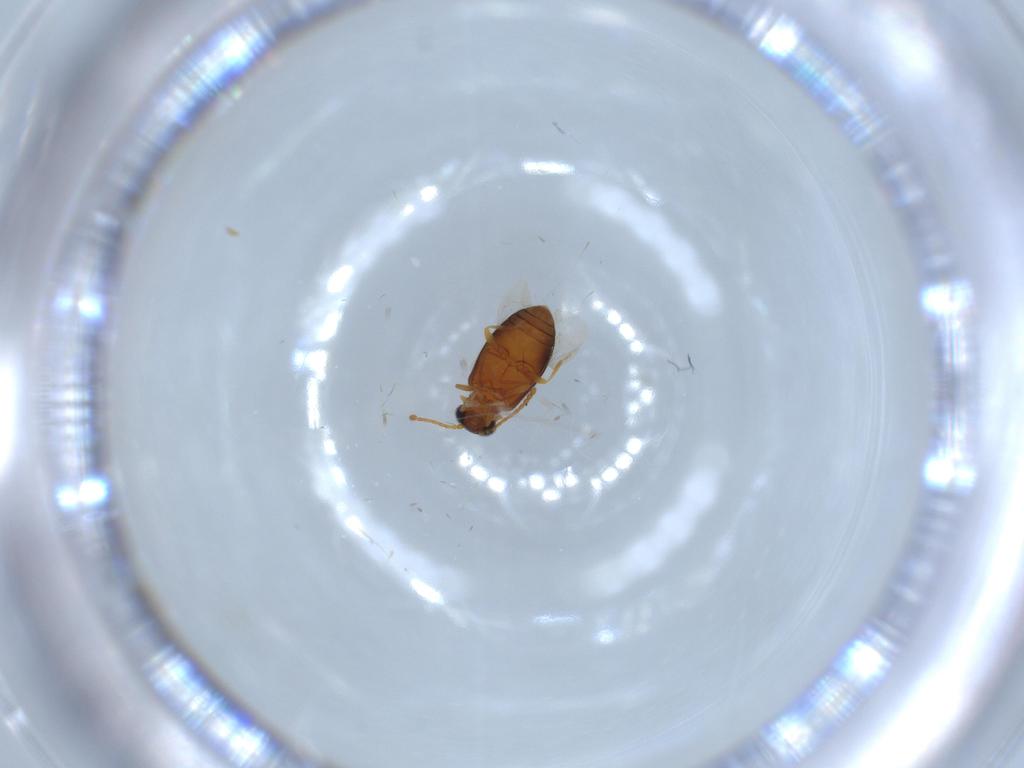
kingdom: Animalia
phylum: Arthropoda
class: Insecta
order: Coleoptera
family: Aderidae
